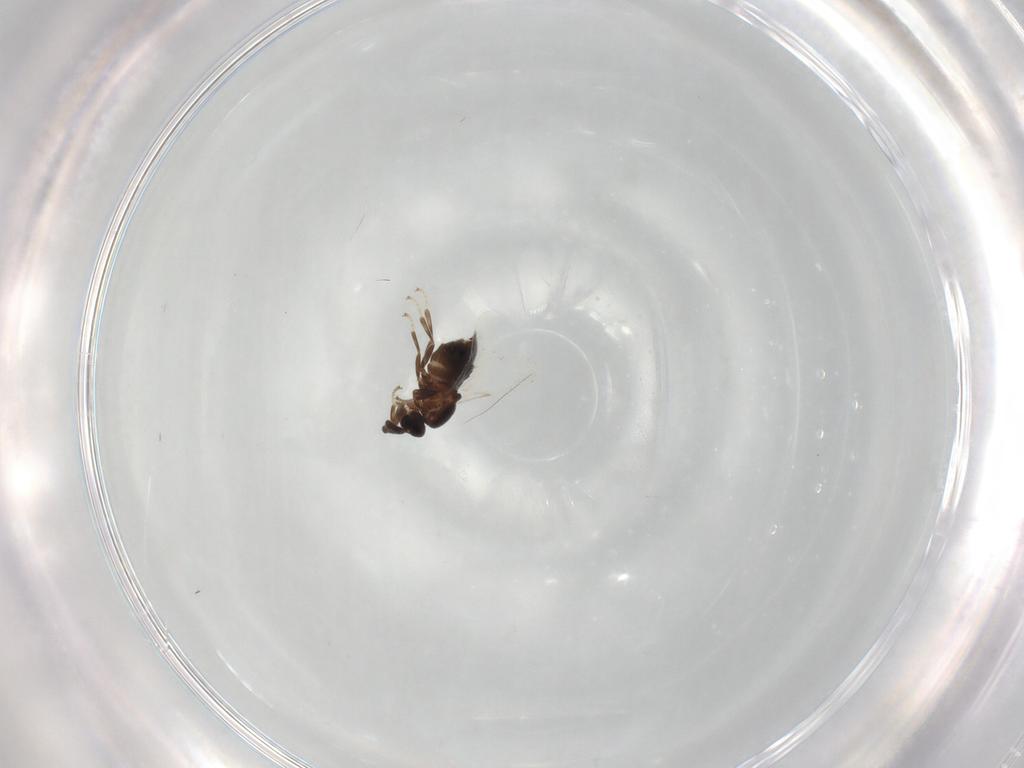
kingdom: Animalia
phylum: Arthropoda
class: Insecta
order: Diptera
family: Scatopsidae
